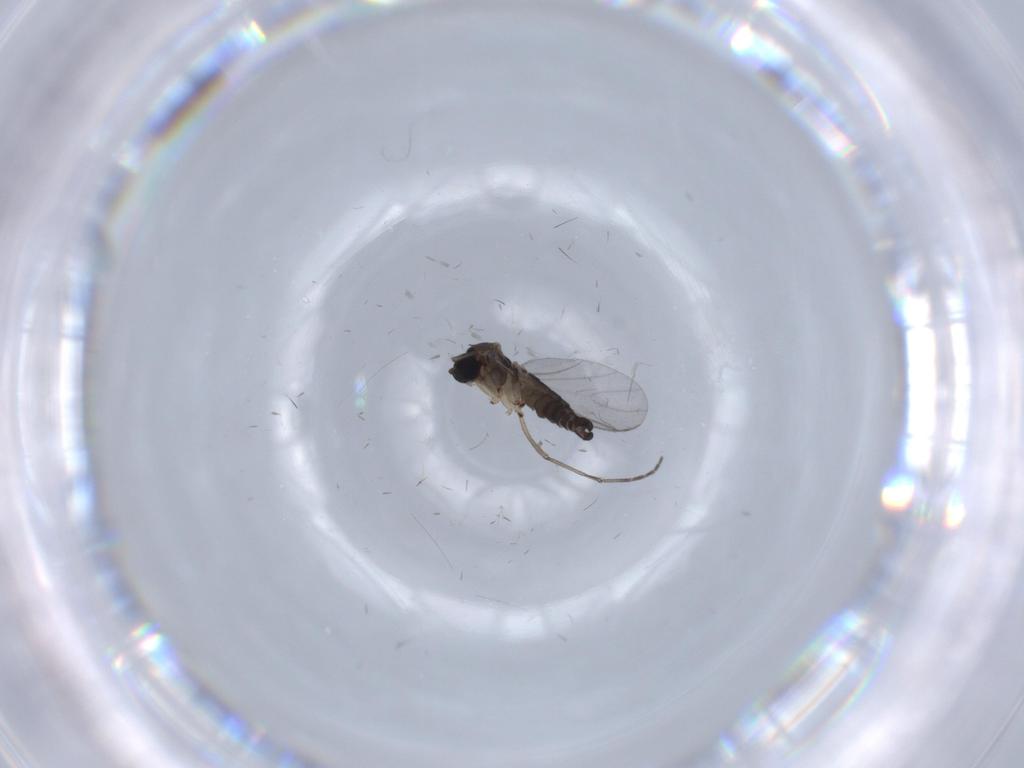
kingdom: Animalia
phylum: Arthropoda
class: Insecta
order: Diptera
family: Sciaridae
